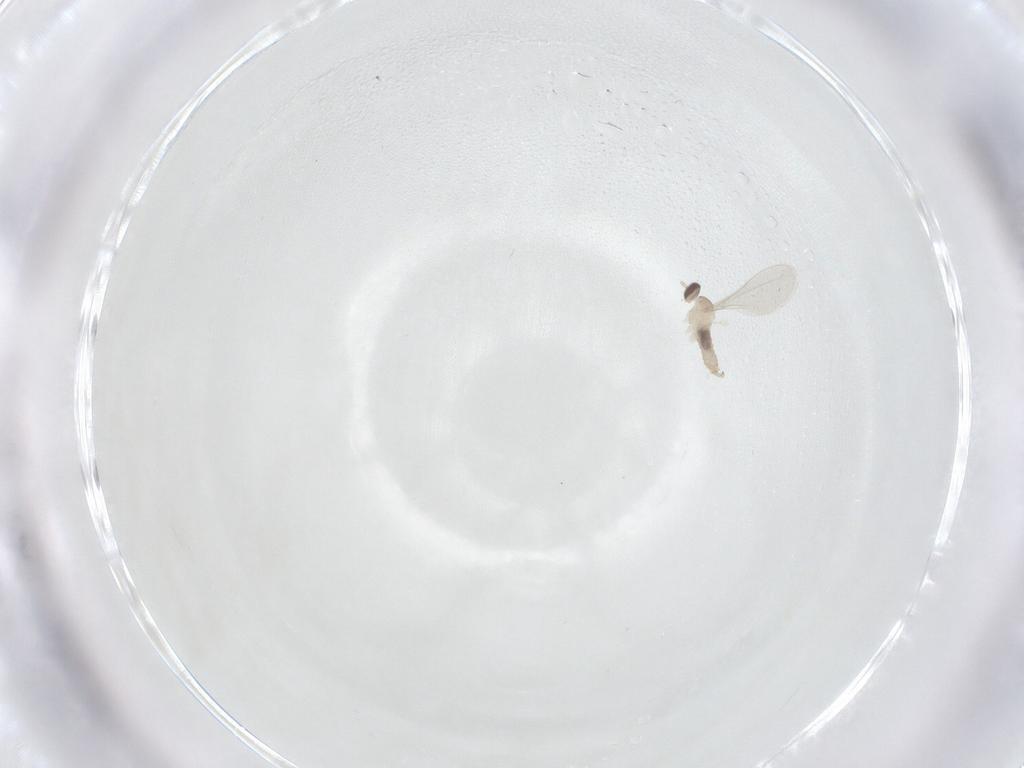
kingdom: Animalia
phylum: Arthropoda
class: Insecta
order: Diptera
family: Cecidomyiidae
